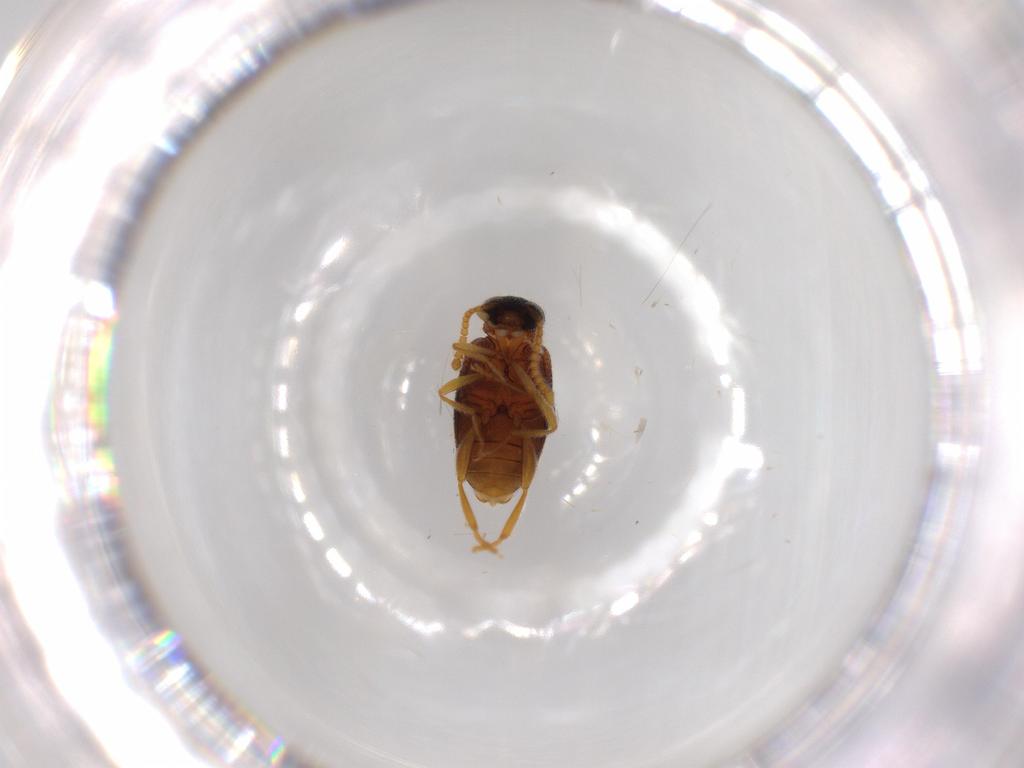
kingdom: Animalia
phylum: Arthropoda
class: Insecta
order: Coleoptera
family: Aderidae
